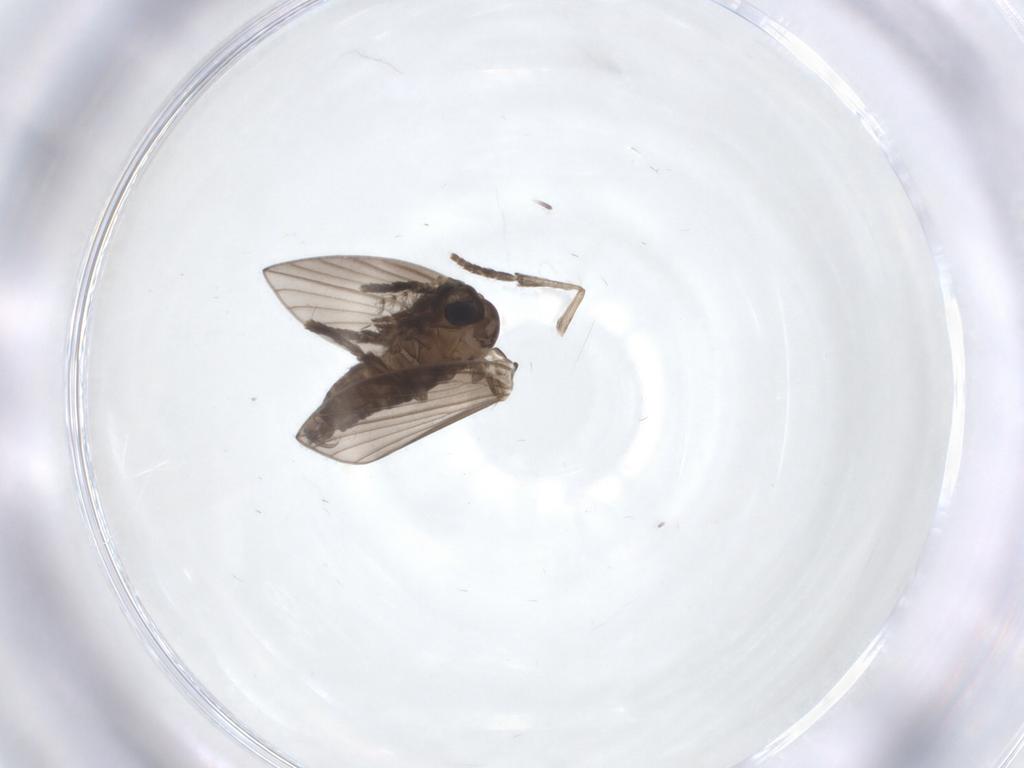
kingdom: Animalia
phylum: Arthropoda
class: Insecta
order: Diptera
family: Psychodidae
